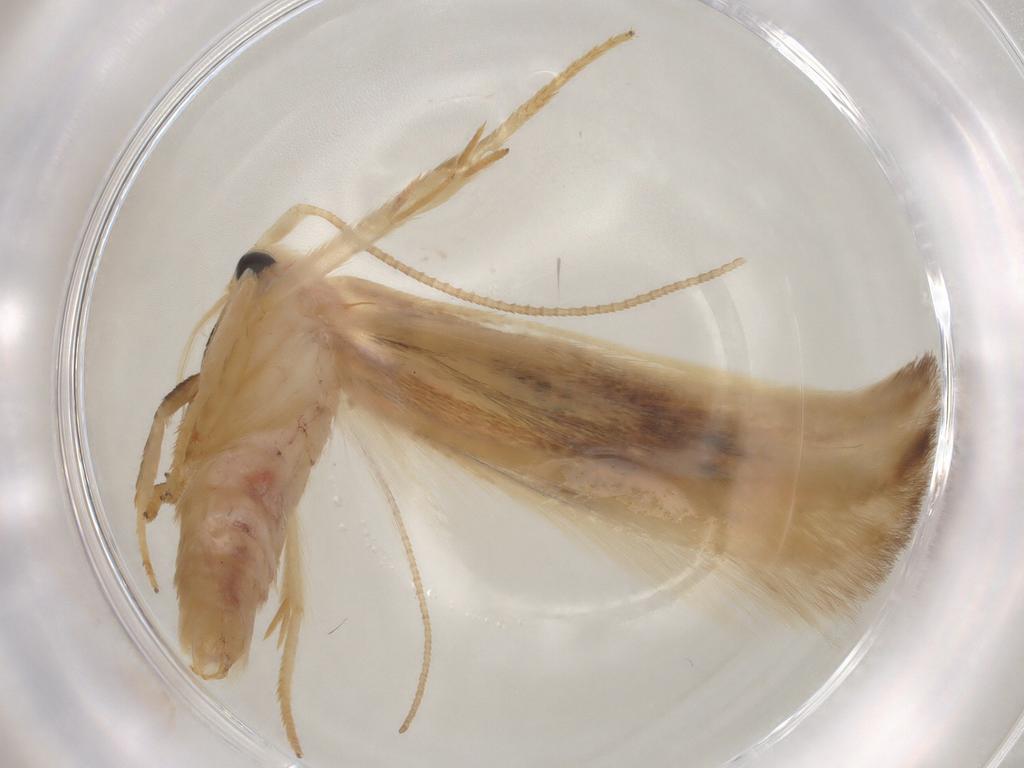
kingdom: Animalia
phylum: Arthropoda
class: Insecta
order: Lepidoptera
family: Geometridae
